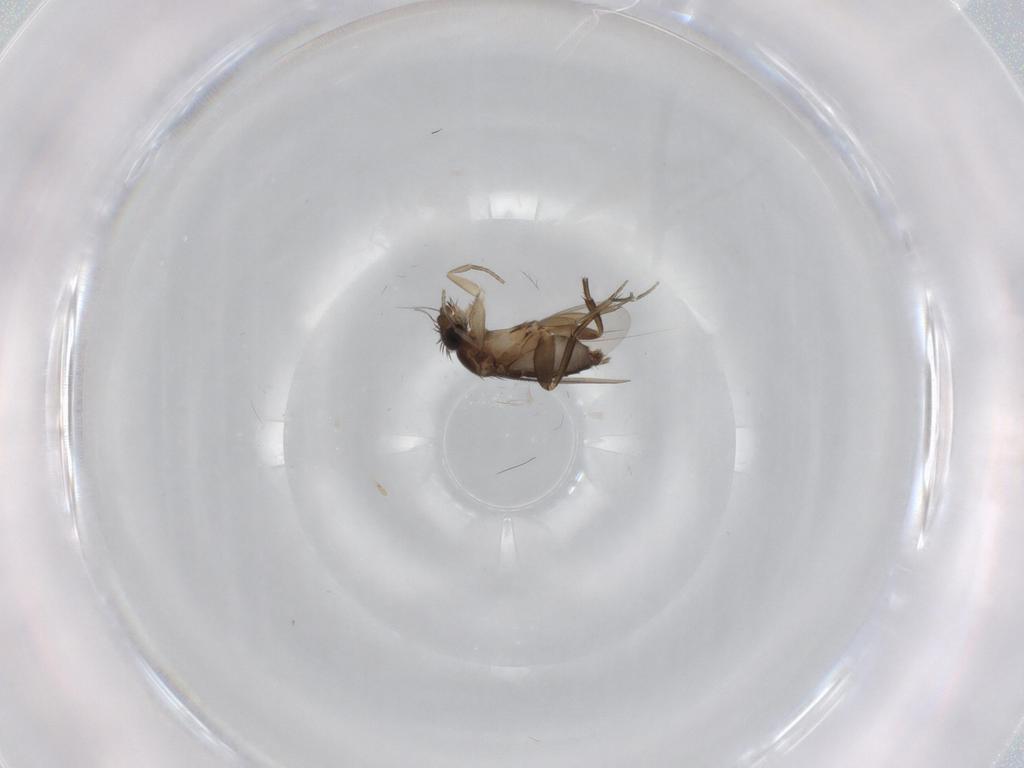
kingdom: Animalia
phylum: Arthropoda
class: Insecta
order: Diptera
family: Phoridae
